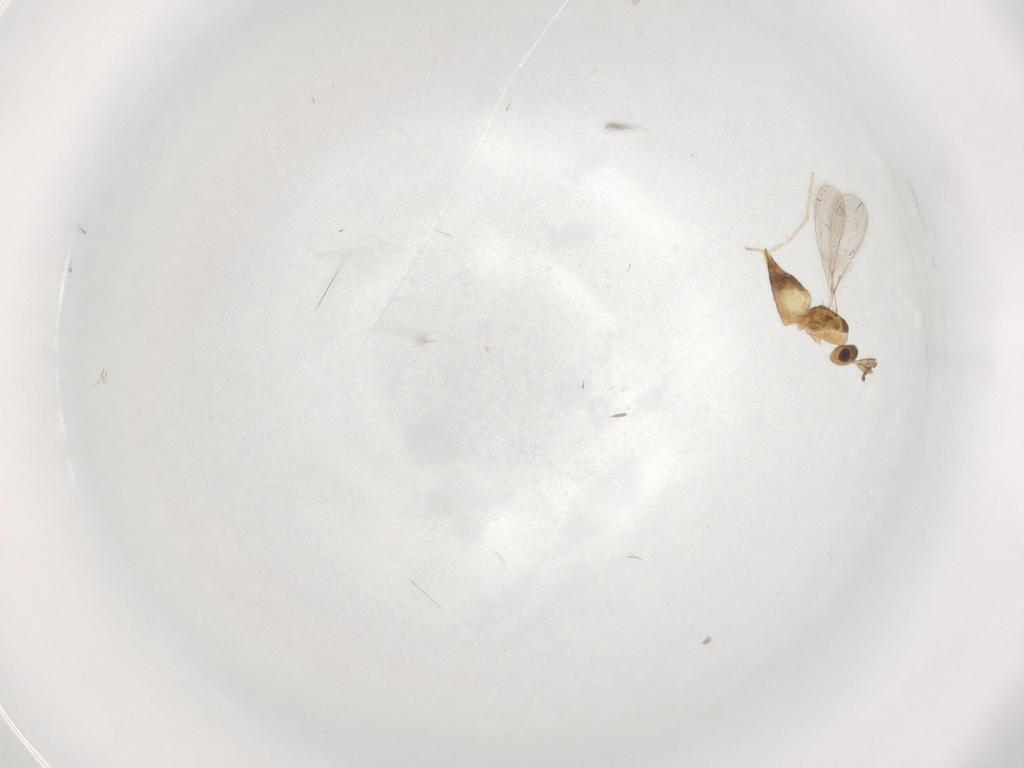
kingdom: Animalia
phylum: Arthropoda
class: Insecta
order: Hymenoptera
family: Mymaridae
